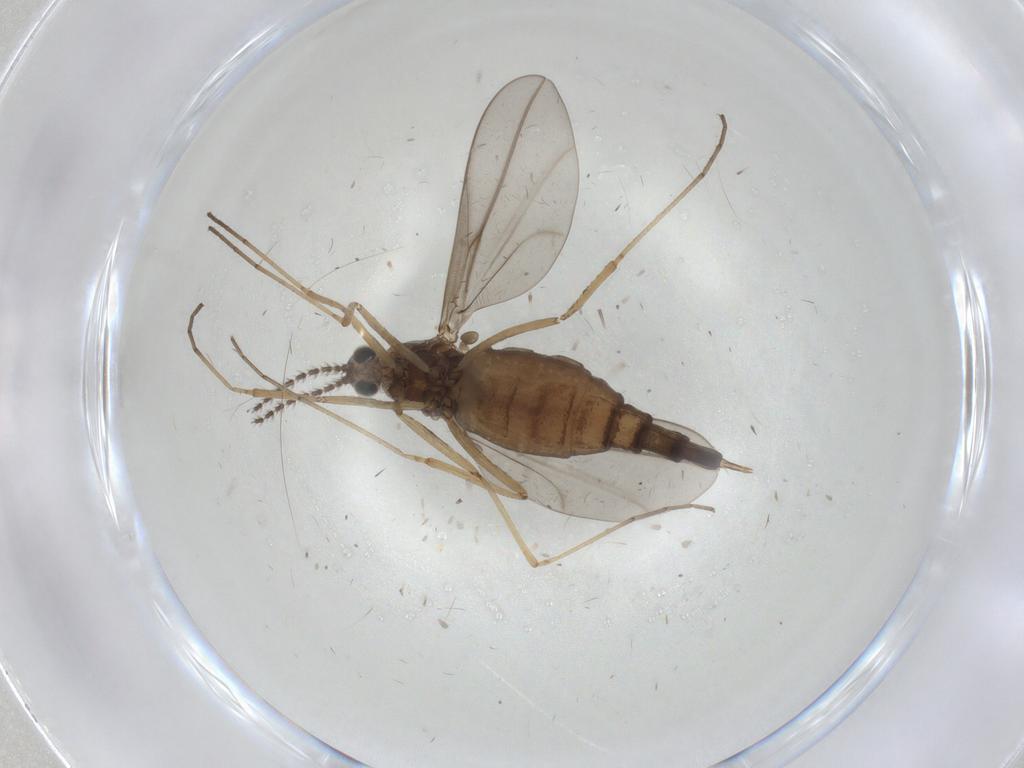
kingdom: Animalia
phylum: Arthropoda
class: Insecta
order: Diptera
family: Cecidomyiidae
